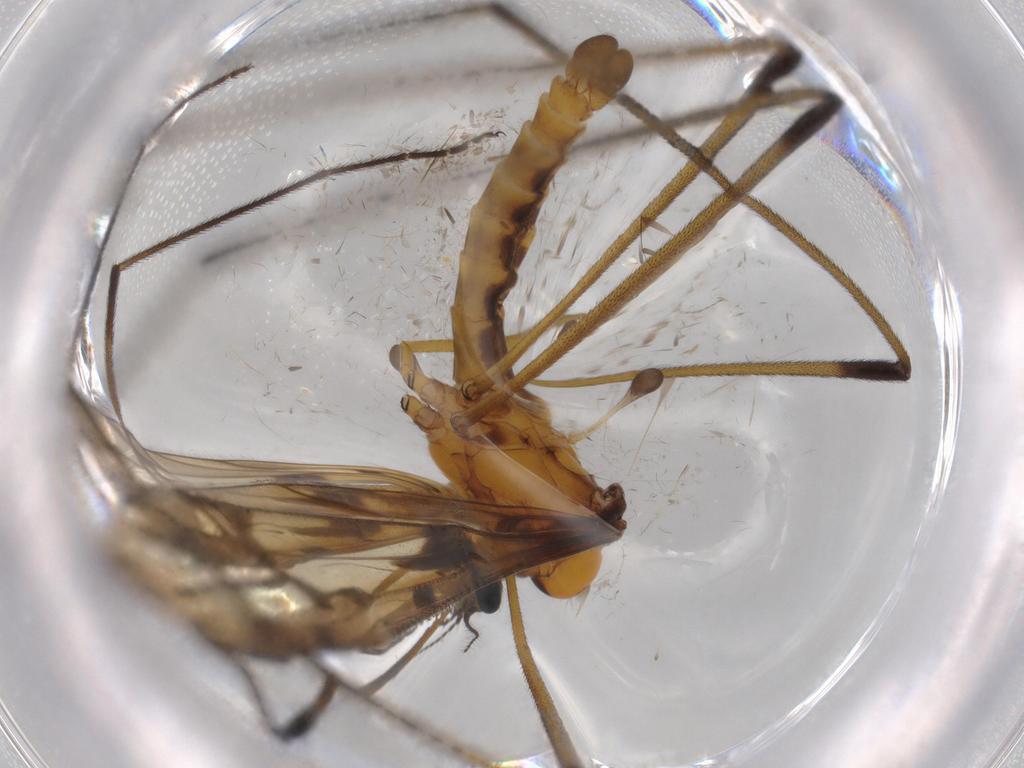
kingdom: Animalia
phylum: Arthropoda
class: Insecta
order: Diptera
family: Limoniidae
